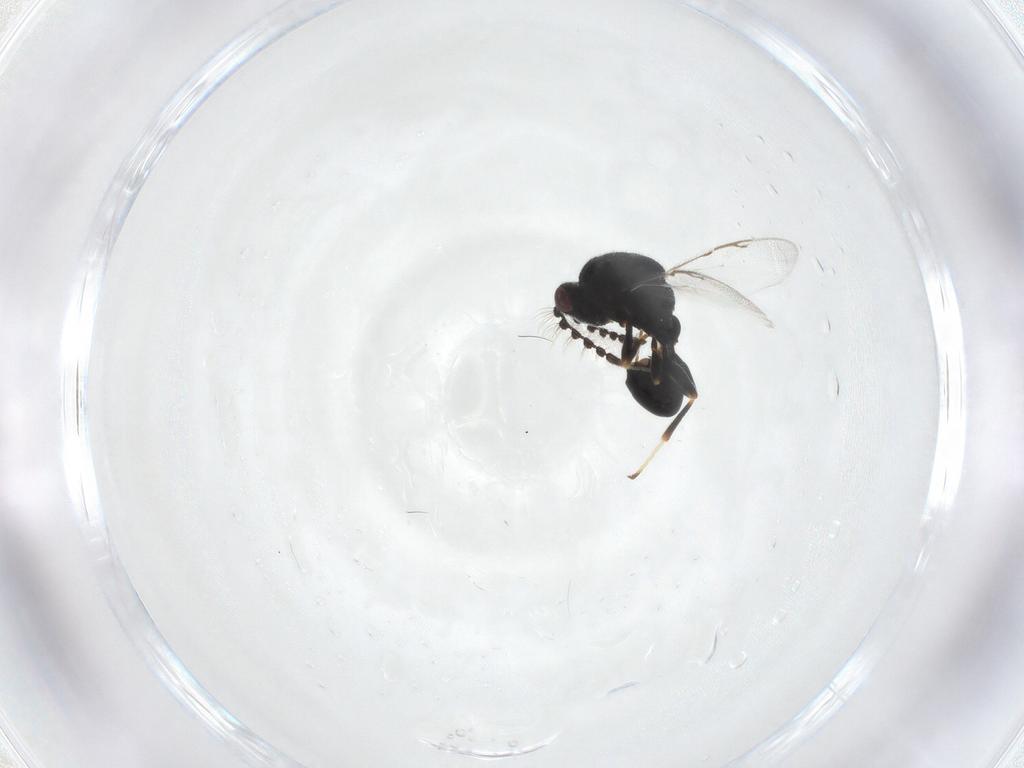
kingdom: Animalia
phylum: Arthropoda
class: Insecta
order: Hymenoptera
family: Eurytomidae
